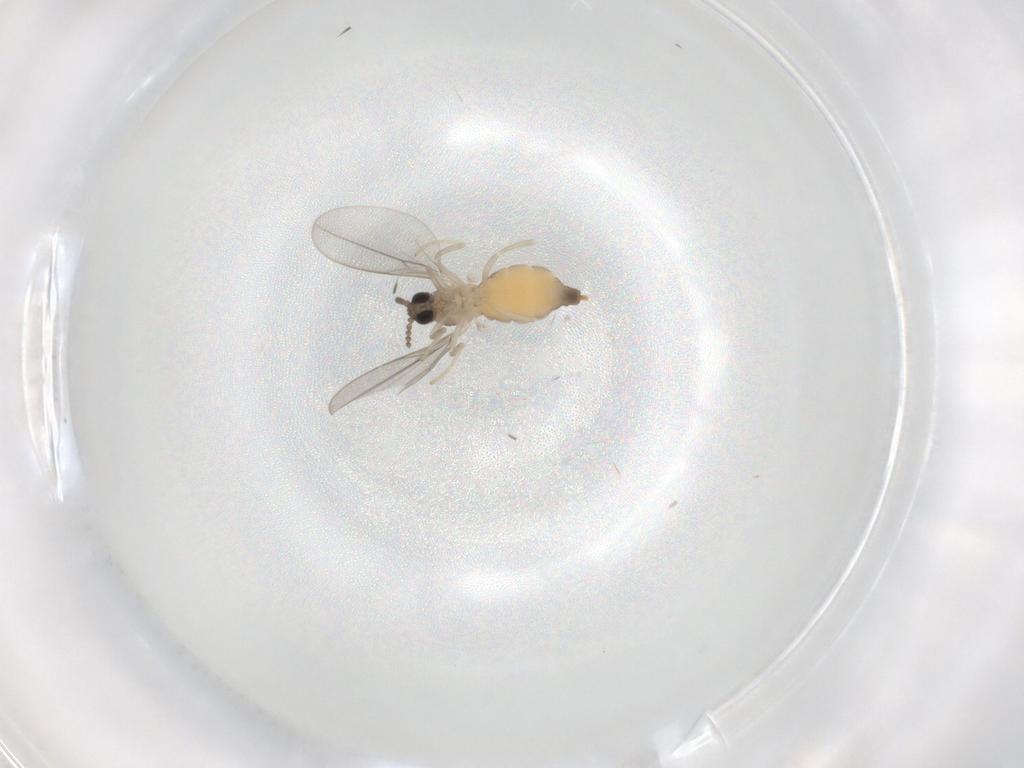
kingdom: Animalia
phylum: Arthropoda
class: Insecta
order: Diptera
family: Cecidomyiidae
